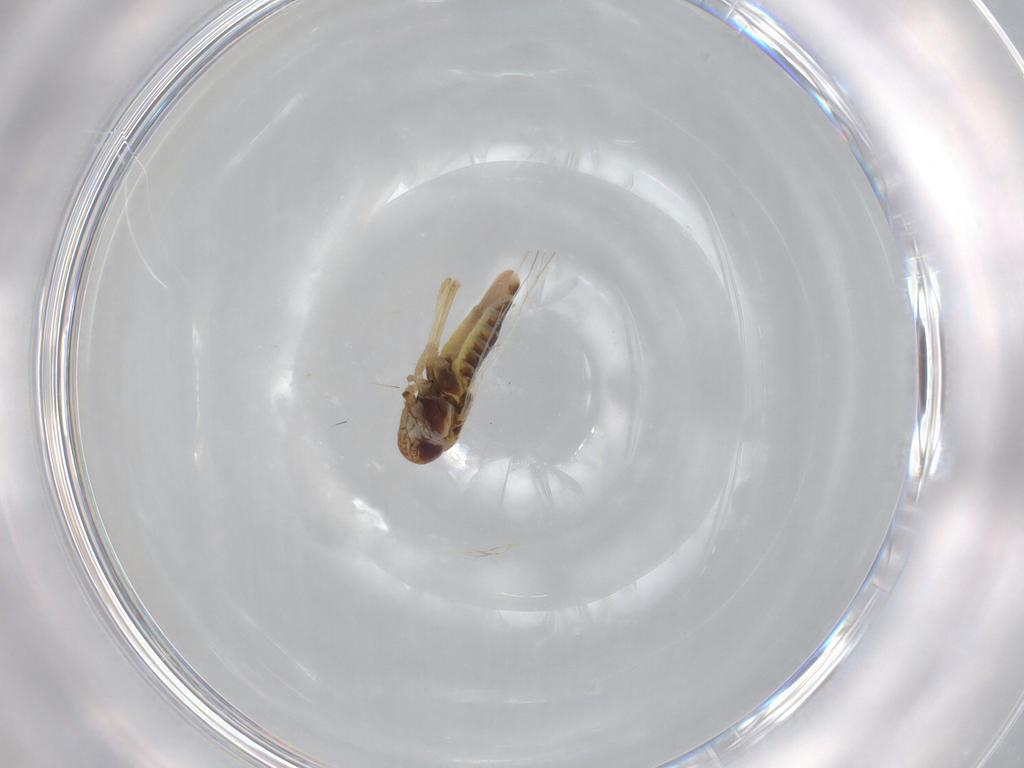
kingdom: Animalia
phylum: Arthropoda
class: Insecta
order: Hemiptera
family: Cicadellidae
